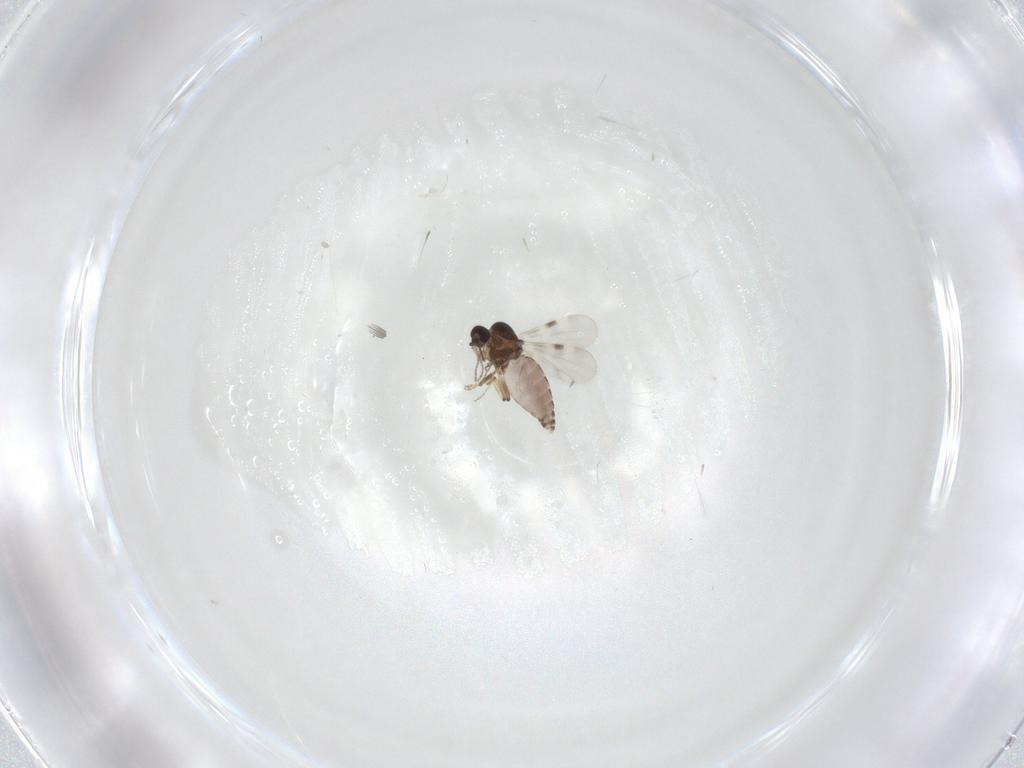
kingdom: Animalia
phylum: Arthropoda
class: Insecta
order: Diptera
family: Phoridae
